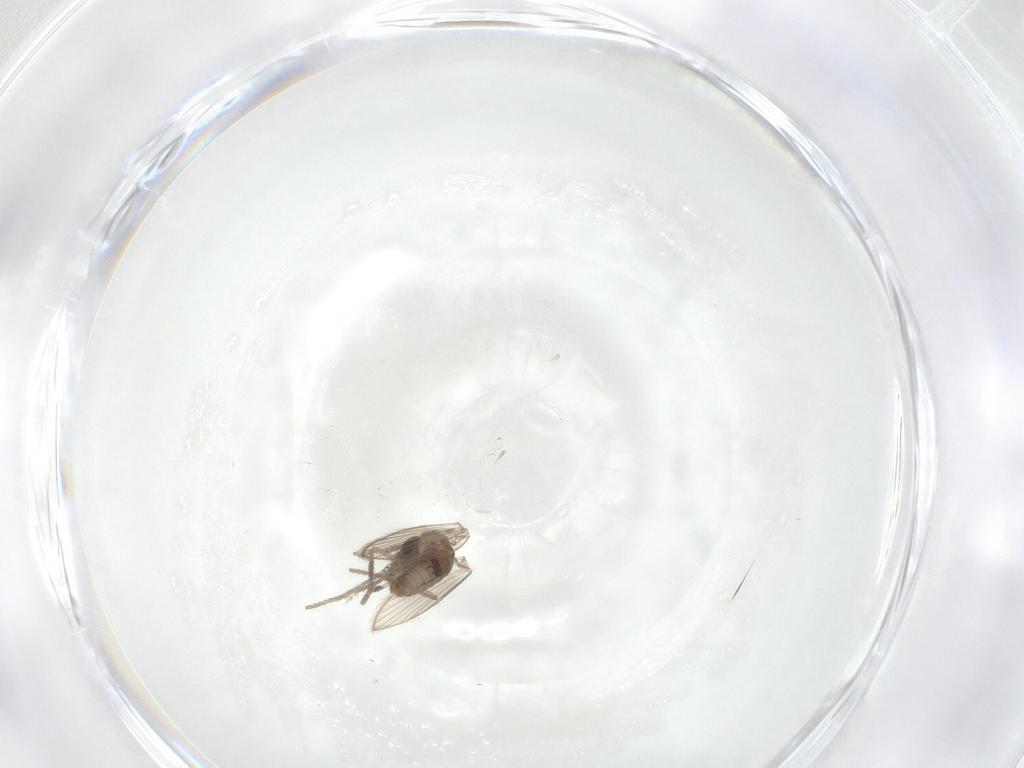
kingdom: Animalia
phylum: Arthropoda
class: Insecta
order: Diptera
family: Psychodidae
